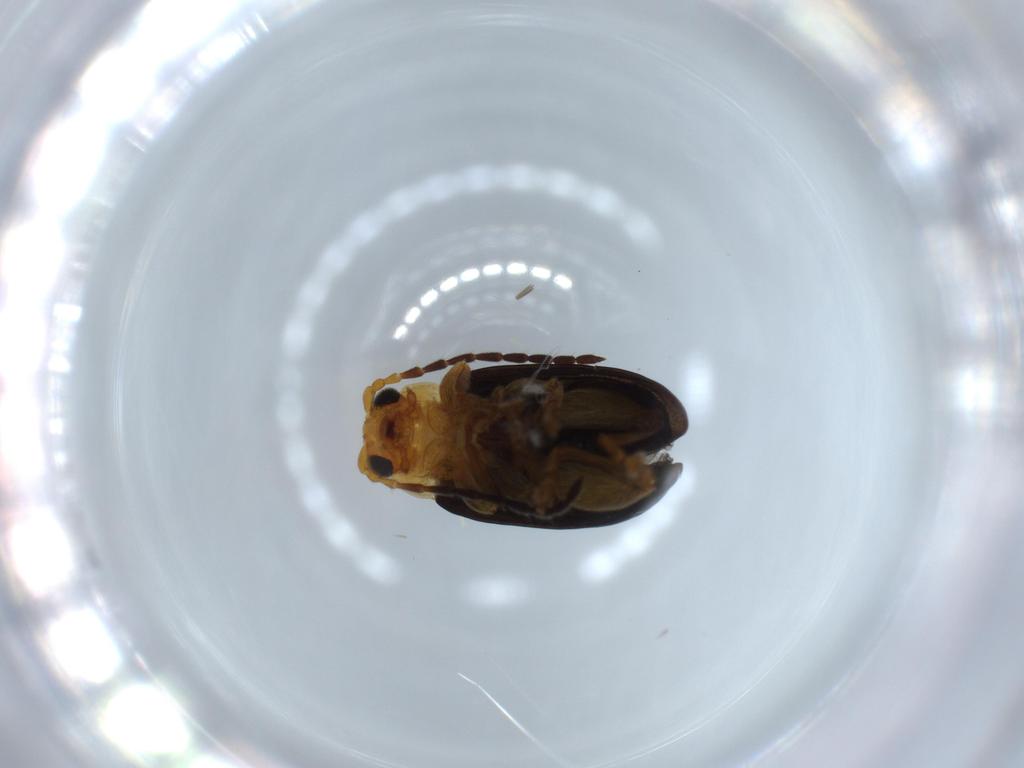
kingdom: Animalia
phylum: Arthropoda
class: Insecta
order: Coleoptera
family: Chrysomelidae
